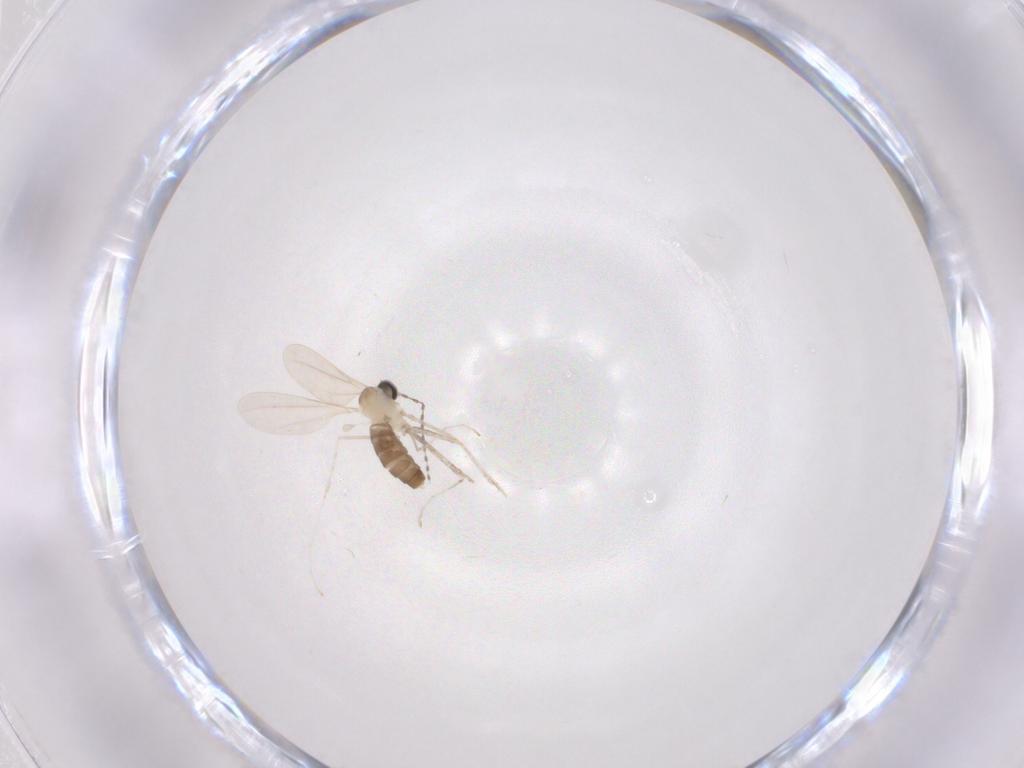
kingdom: Animalia
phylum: Arthropoda
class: Insecta
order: Diptera
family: Cecidomyiidae
